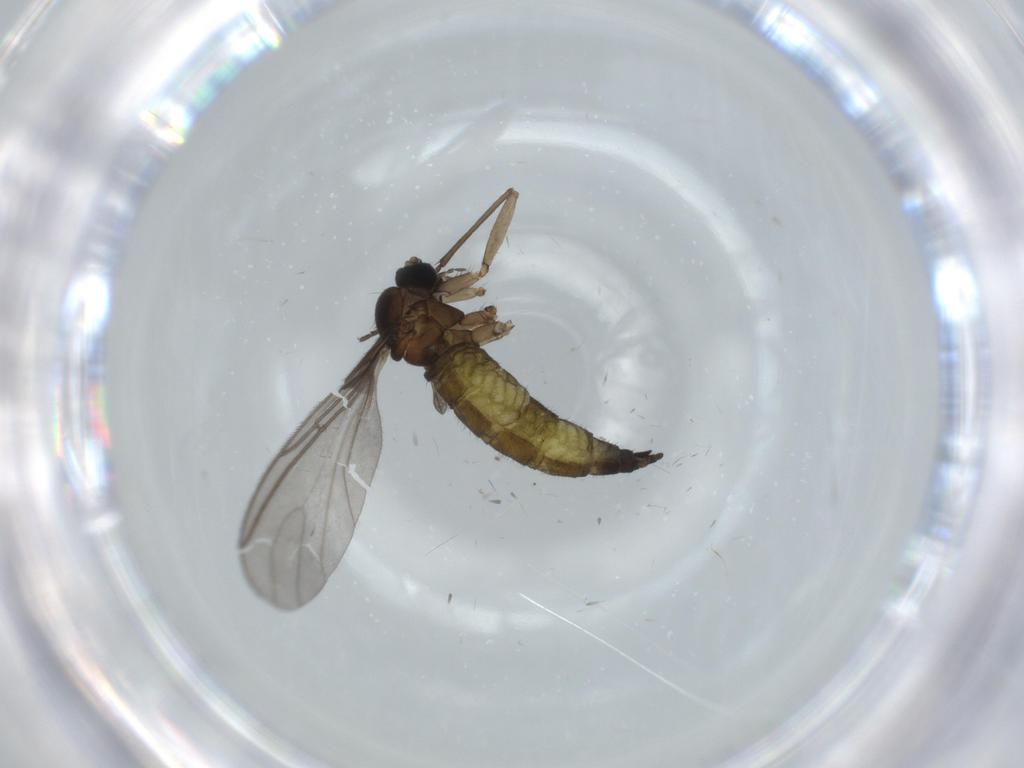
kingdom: Animalia
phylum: Arthropoda
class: Insecta
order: Diptera
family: Sciaridae
